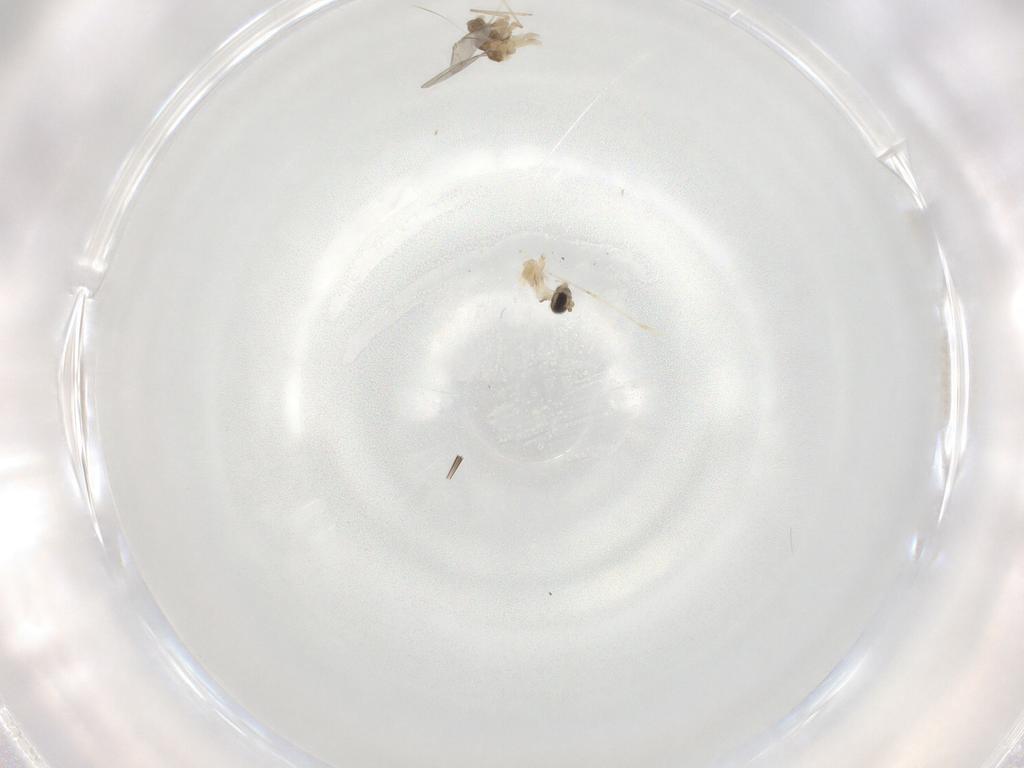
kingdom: Animalia
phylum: Arthropoda
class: Insecta
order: Diptera
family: Cecidomyiidae
